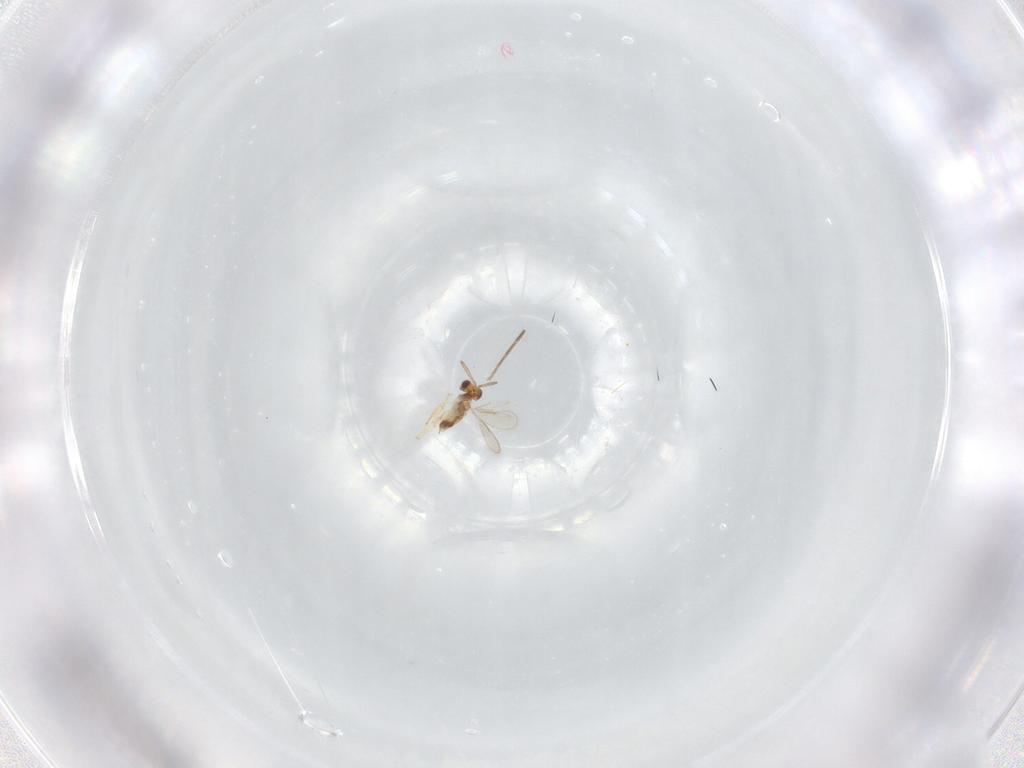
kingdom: Animalia
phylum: Arthropoda
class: Insecta
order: Hymenoptera
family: Aphelinidae
